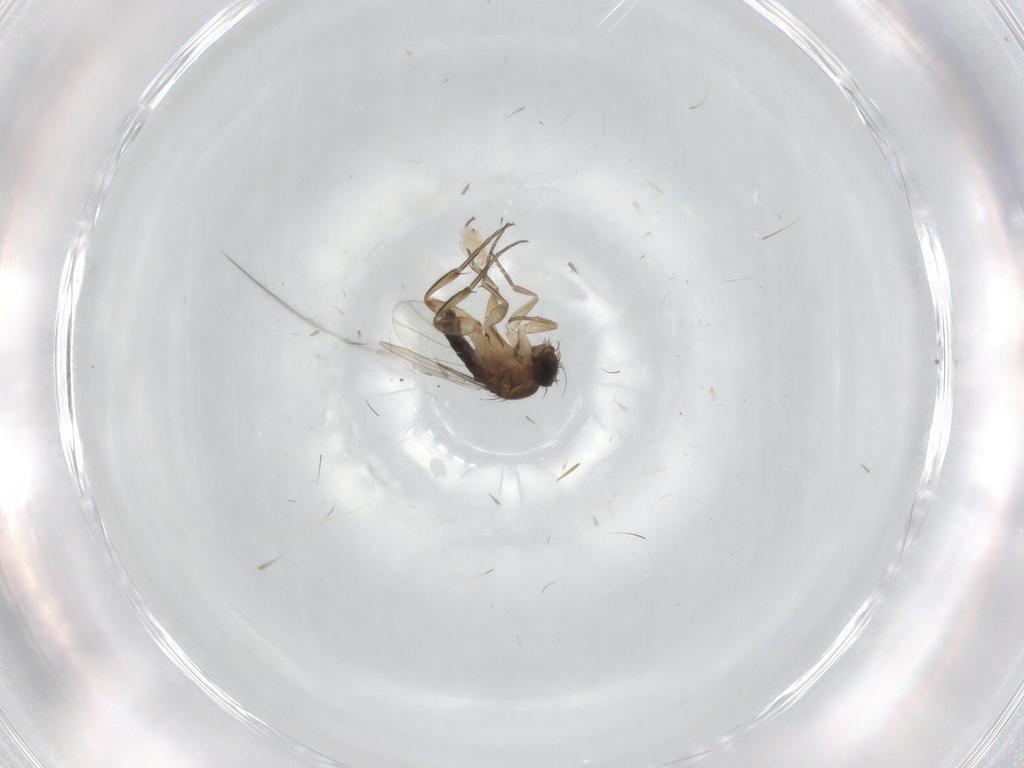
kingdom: Animalia
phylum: Arthropoda
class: Insecta
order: Diptera
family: Phoridae
